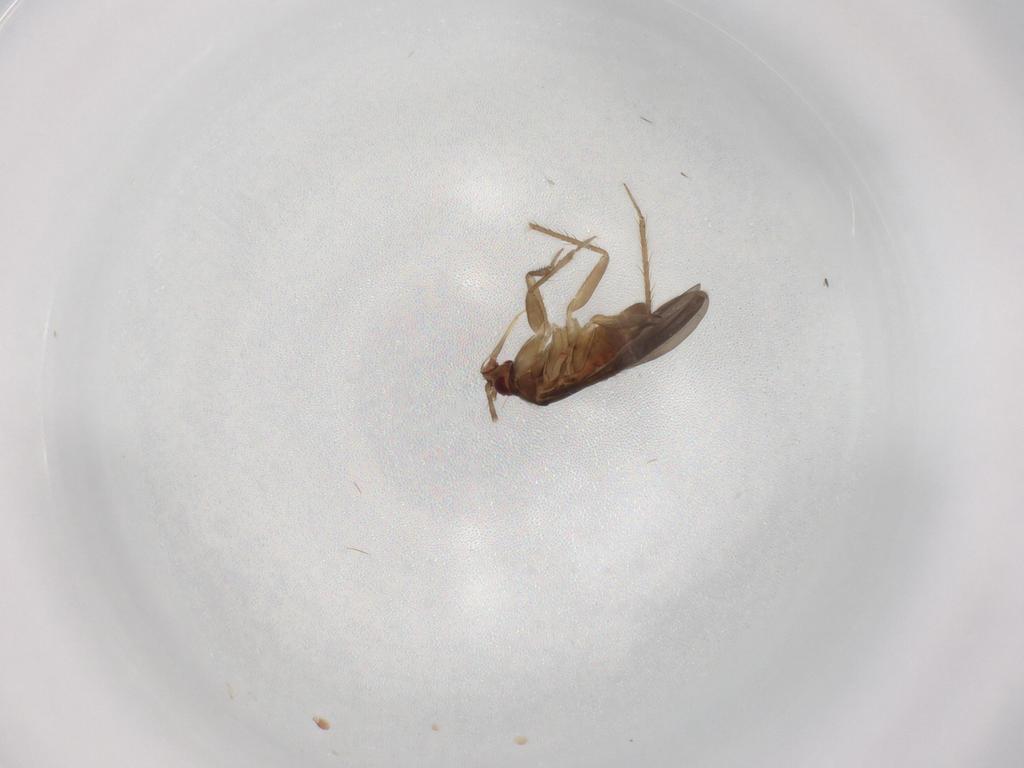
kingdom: Animalia
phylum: Arthropoda
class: Insecta
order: Hemiptera
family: Ceratocombidae
